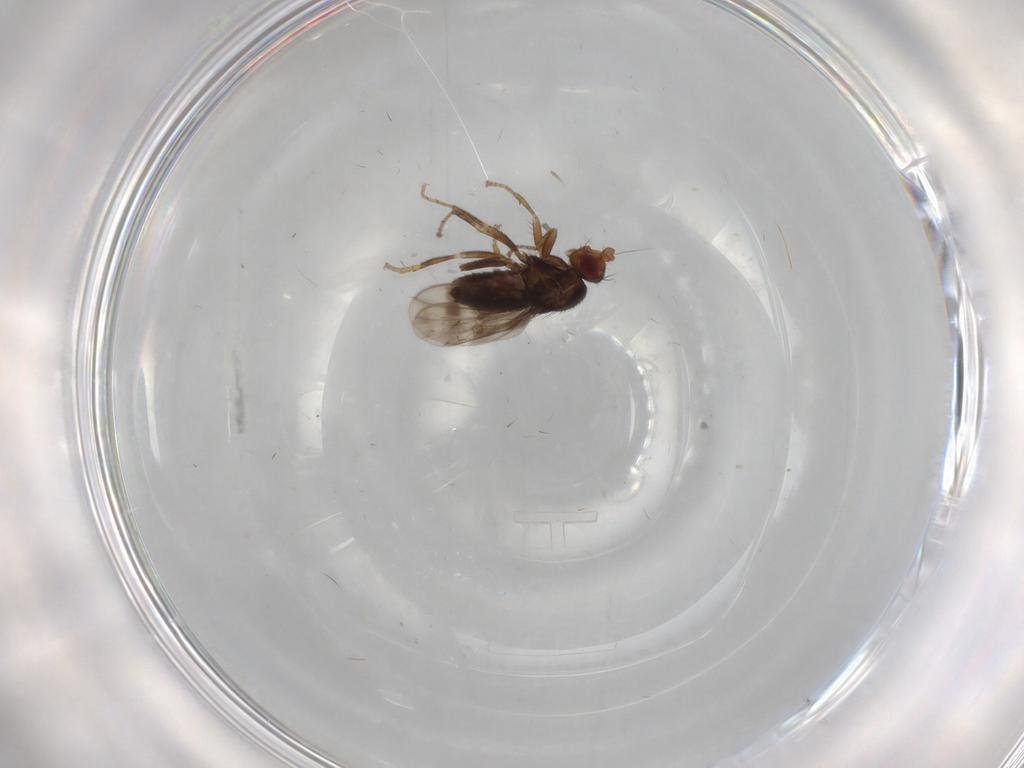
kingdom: Animalia
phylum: Arthropoda
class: Insecta
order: Diptera
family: Sphaeroceridae
